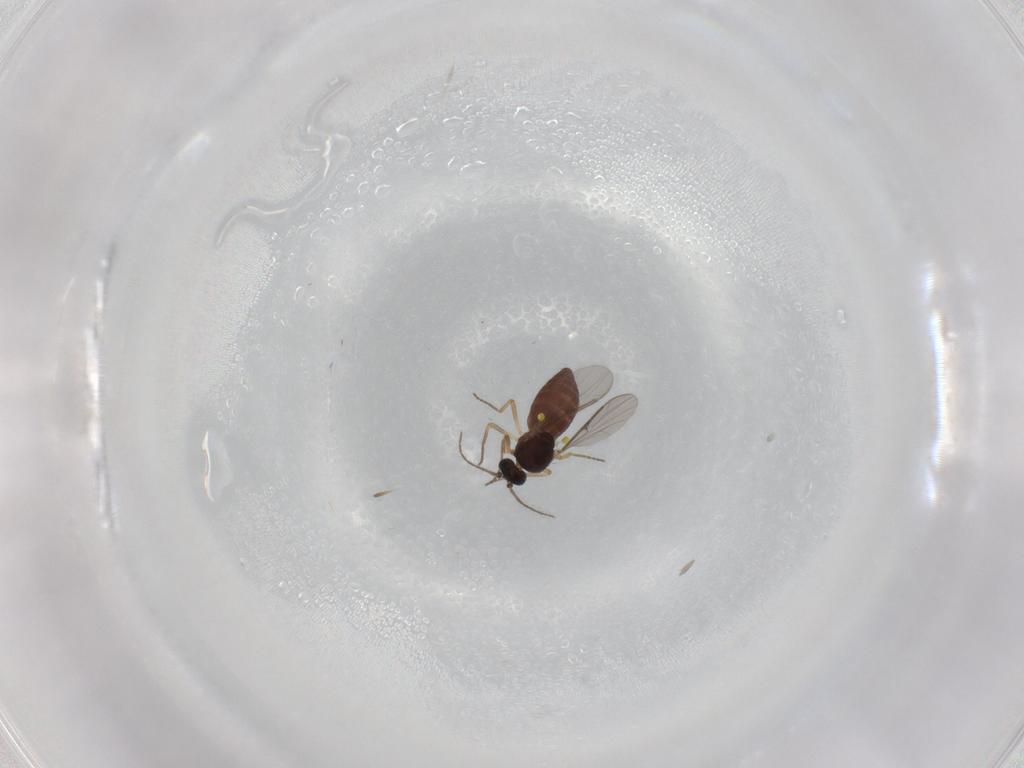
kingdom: Animalia
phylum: Arthropoda
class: Insecta
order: Diptera
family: Ceratopogonidae
